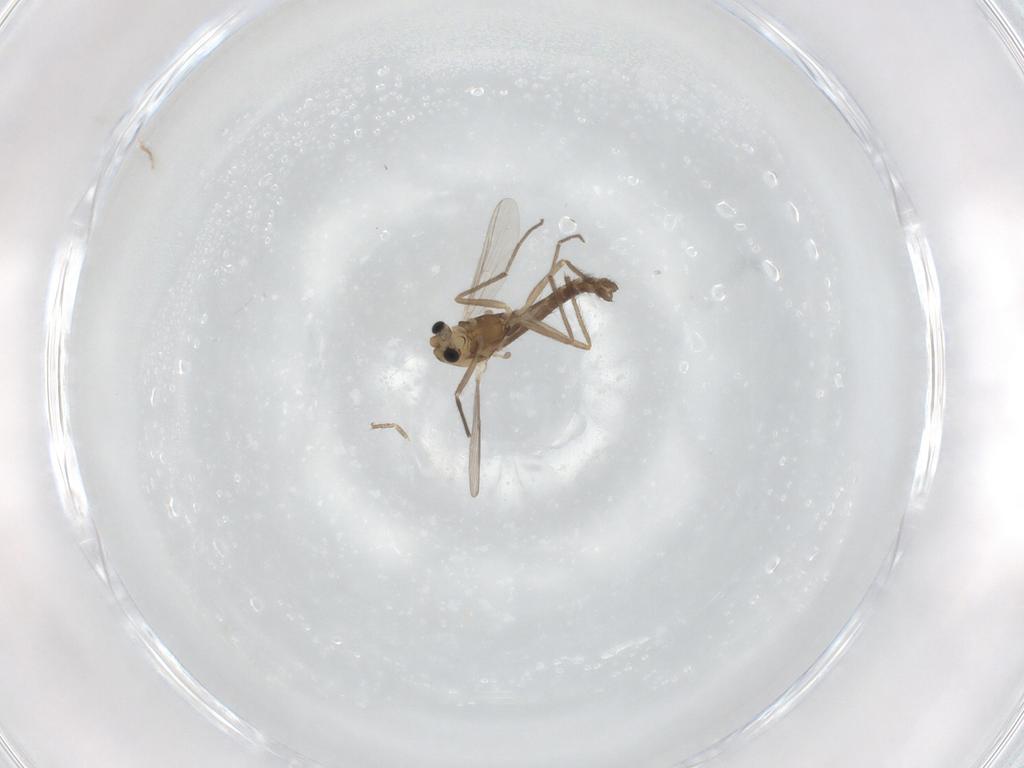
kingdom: Animalia
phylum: Arthropoda
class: Insecta
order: Diptera
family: Chironomidae
